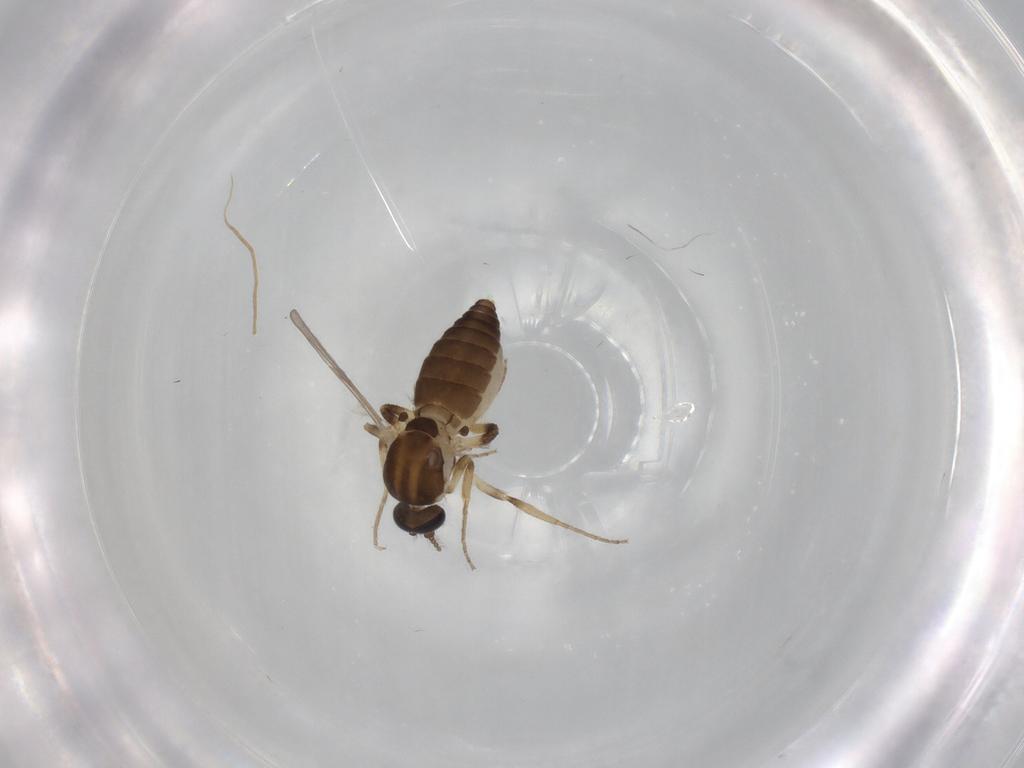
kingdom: Animalia
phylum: Arthropoda
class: Insecta
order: Diptera
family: Ceratopogonidae
